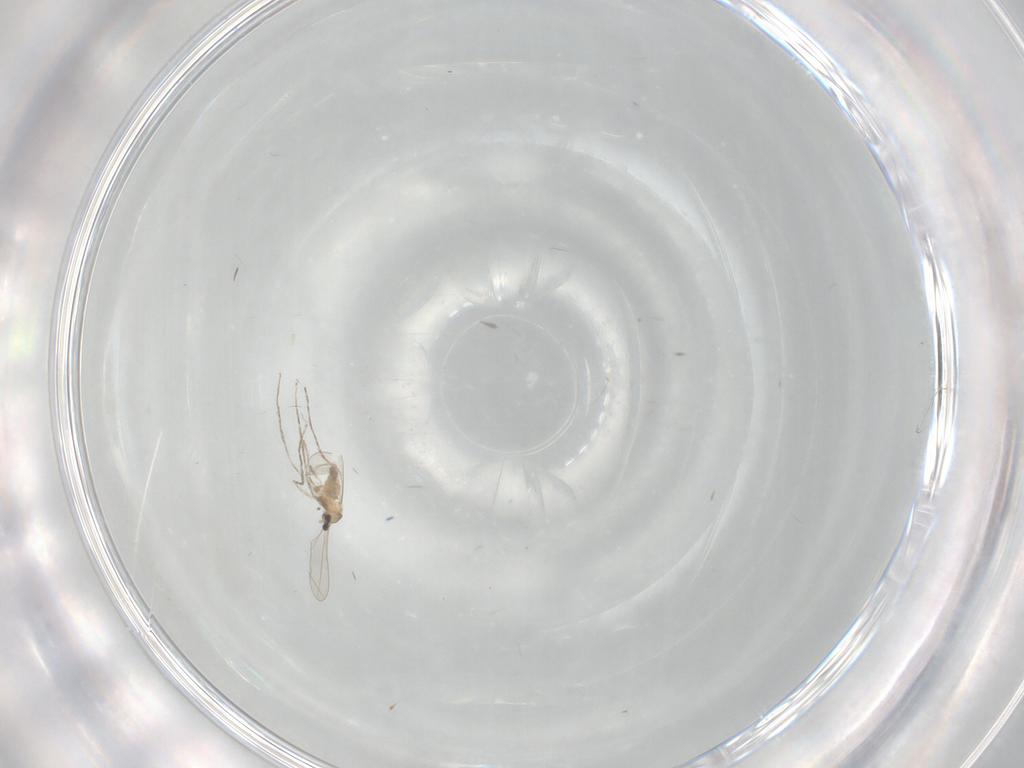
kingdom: Animalia
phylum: Arthropoda
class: Insecta
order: Diptera
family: Cecidomyiidae
